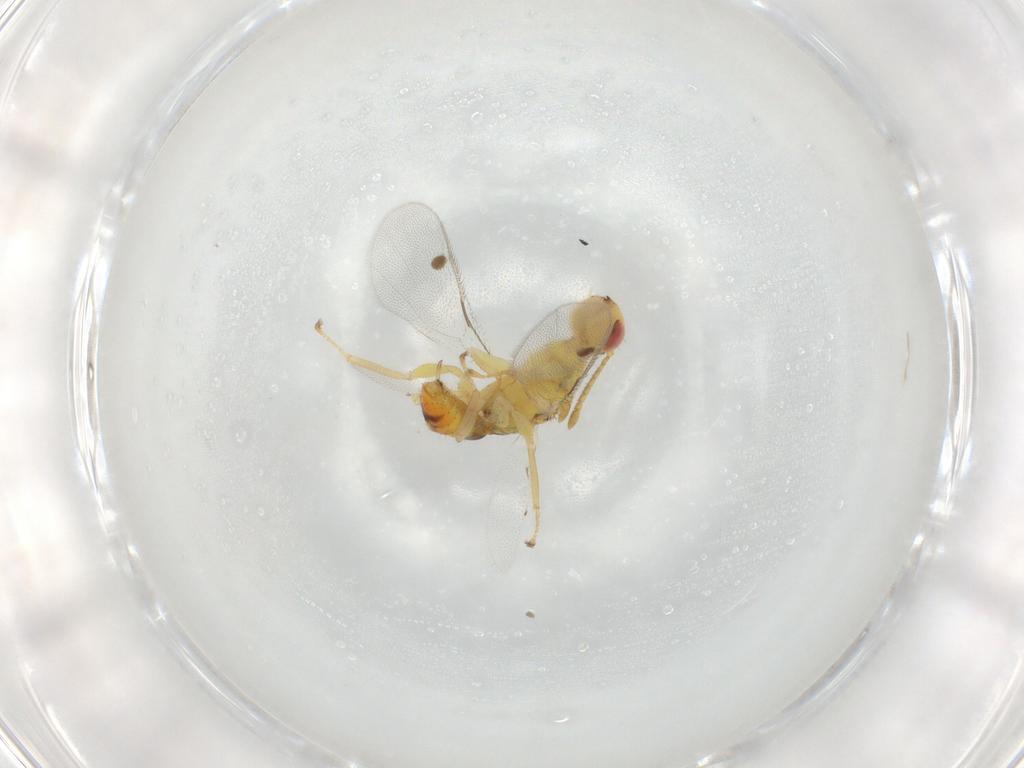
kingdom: Animalia
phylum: Arthropoda
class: Insecta
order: Hymenoptera
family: Megastigmidae
